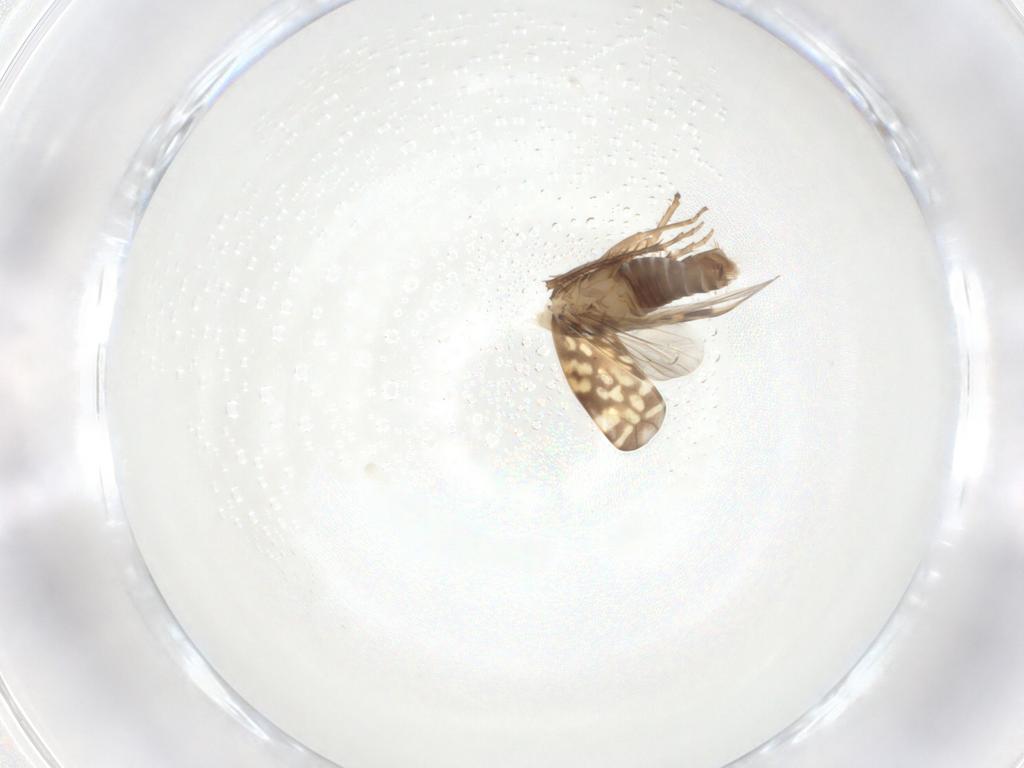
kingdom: Animalia
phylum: Arthropoda
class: Insecta
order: Hemiptera
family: Cicadellidae
